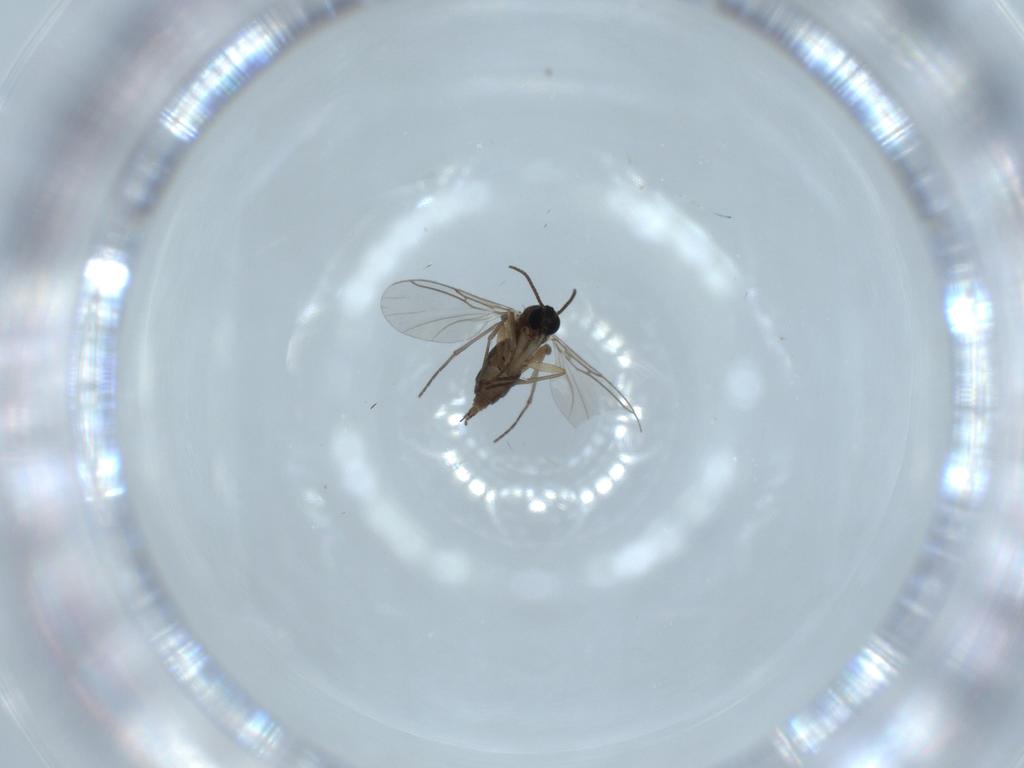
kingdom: Animalia
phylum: Arthropoda
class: Insecta
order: Diptera
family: Sciaridae
